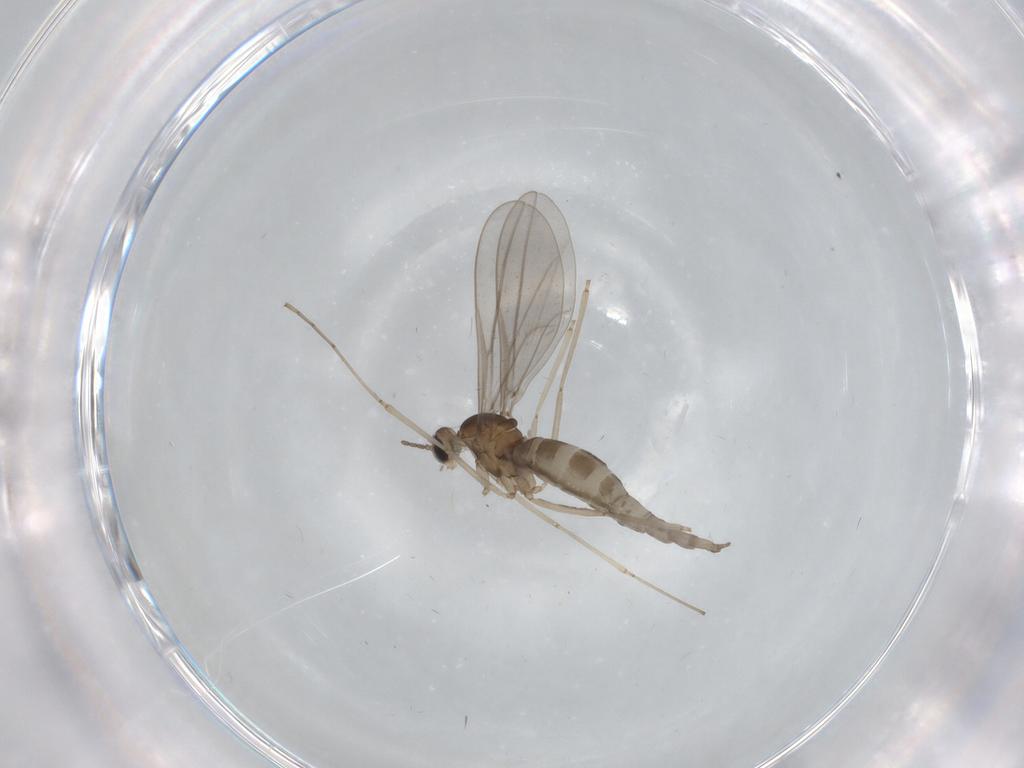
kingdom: Animalia
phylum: Arthropoda
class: Insecta
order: Diptera
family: Cecidomyiidae
